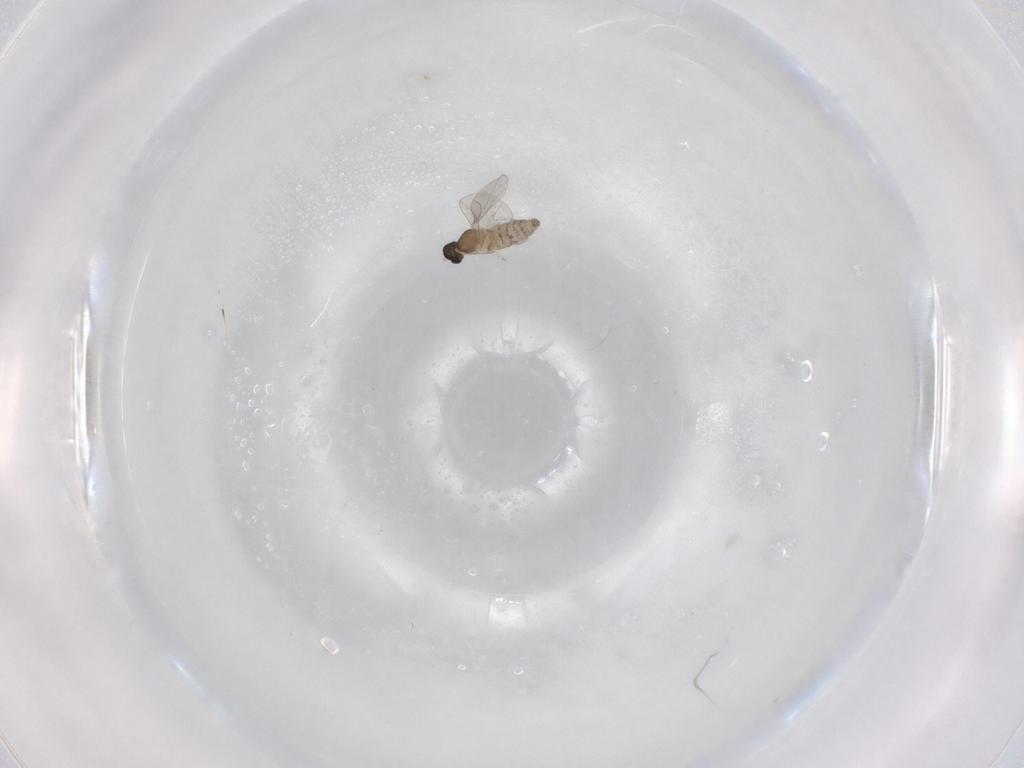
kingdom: Animalia
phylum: Arthropoda
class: Insecta
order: Diptera
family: Cecidomyiidae
